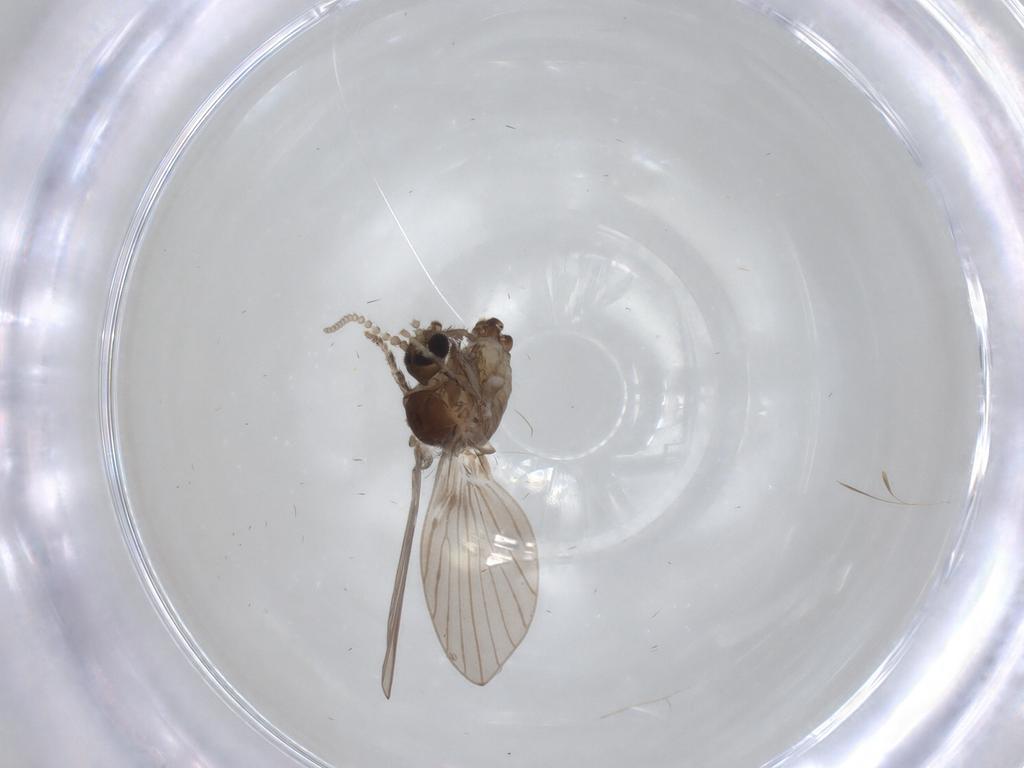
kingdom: Animalia
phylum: Arthropoda
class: Insecta
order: Diptera
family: Psychodidae
